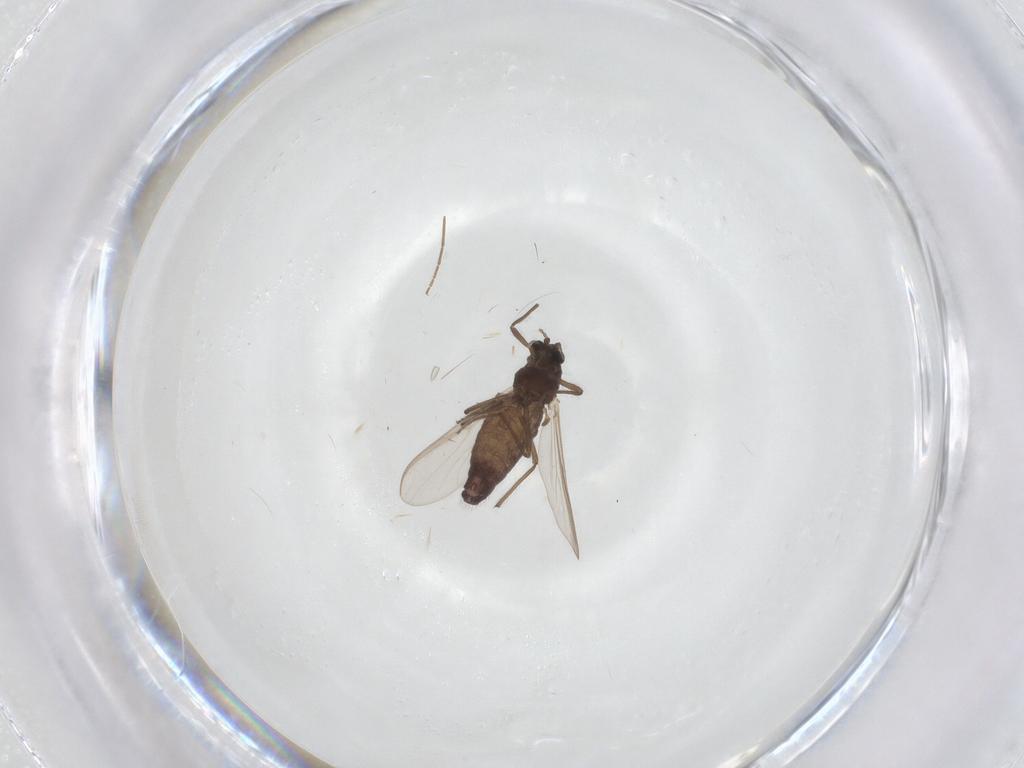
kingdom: Animalia
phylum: Arthropoda
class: Insecta
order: Diptera
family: Chironomidae
